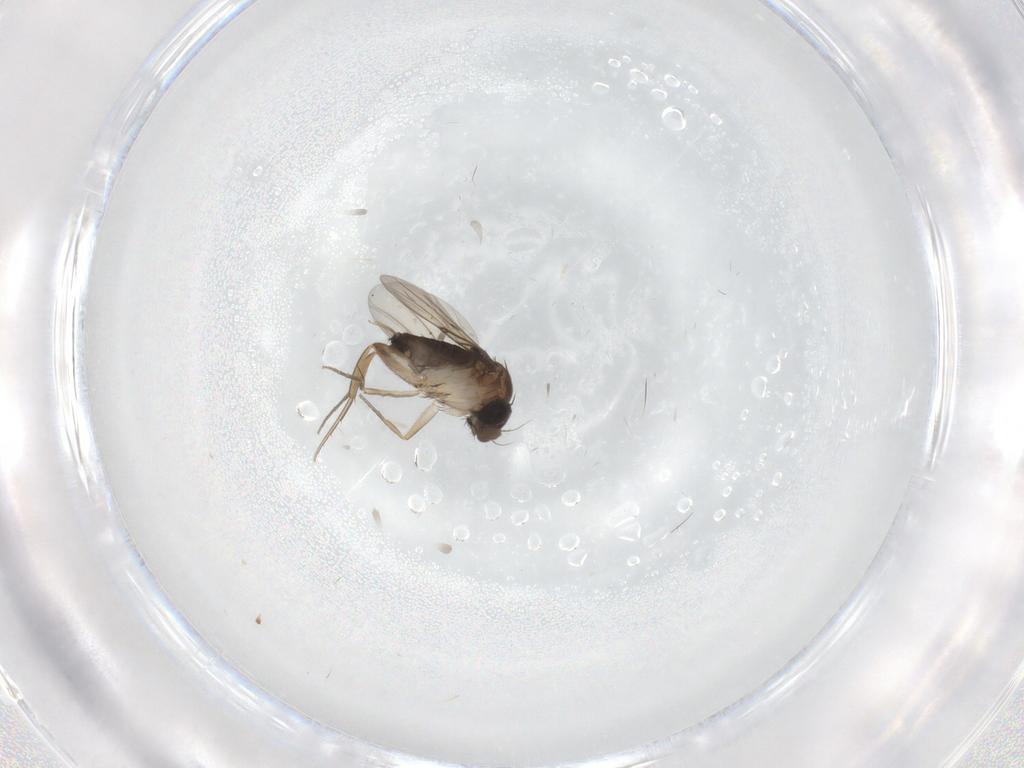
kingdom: Animalia
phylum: Arthropoda
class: Insecta
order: Diptera
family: Phoridae
